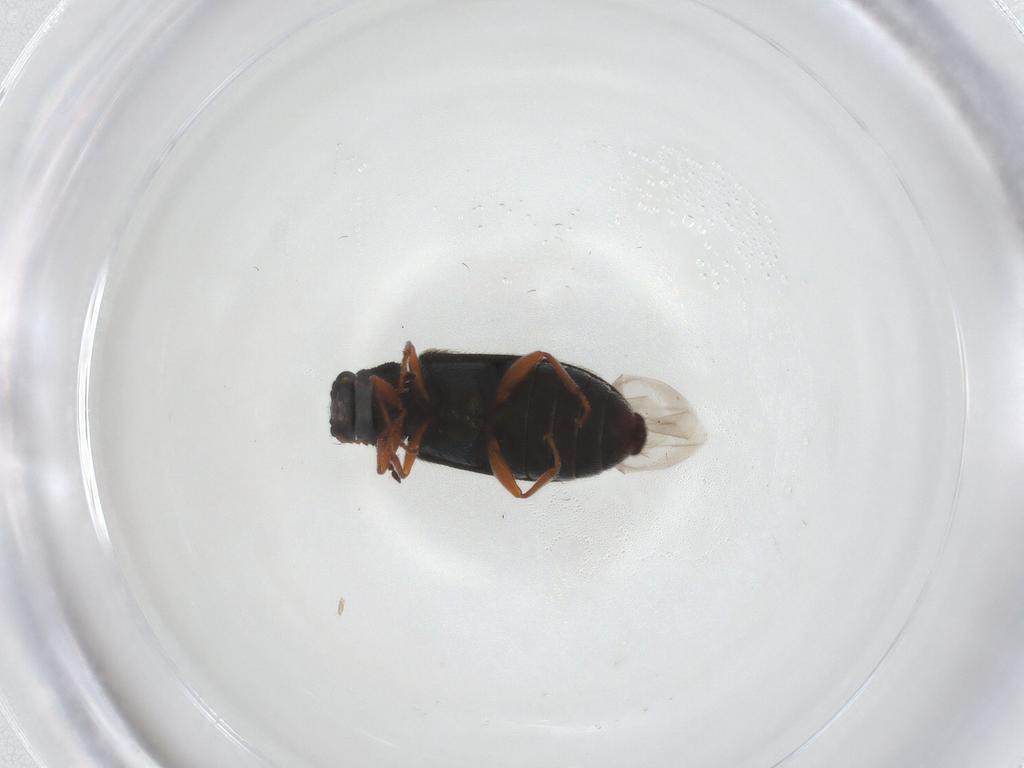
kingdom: Animalia
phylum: Arthropoda
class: Insecta
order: Coleoptera
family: Melyridae
